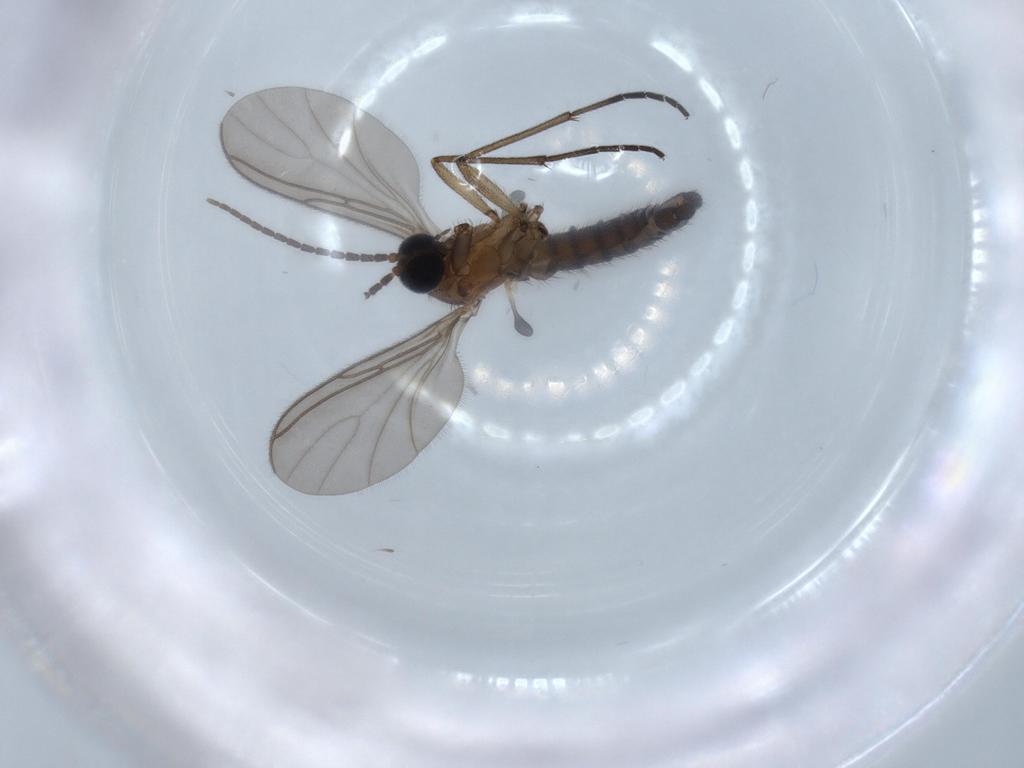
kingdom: Animalia
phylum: Arthropoda
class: Insecta
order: Diptera
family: Sciaridae
